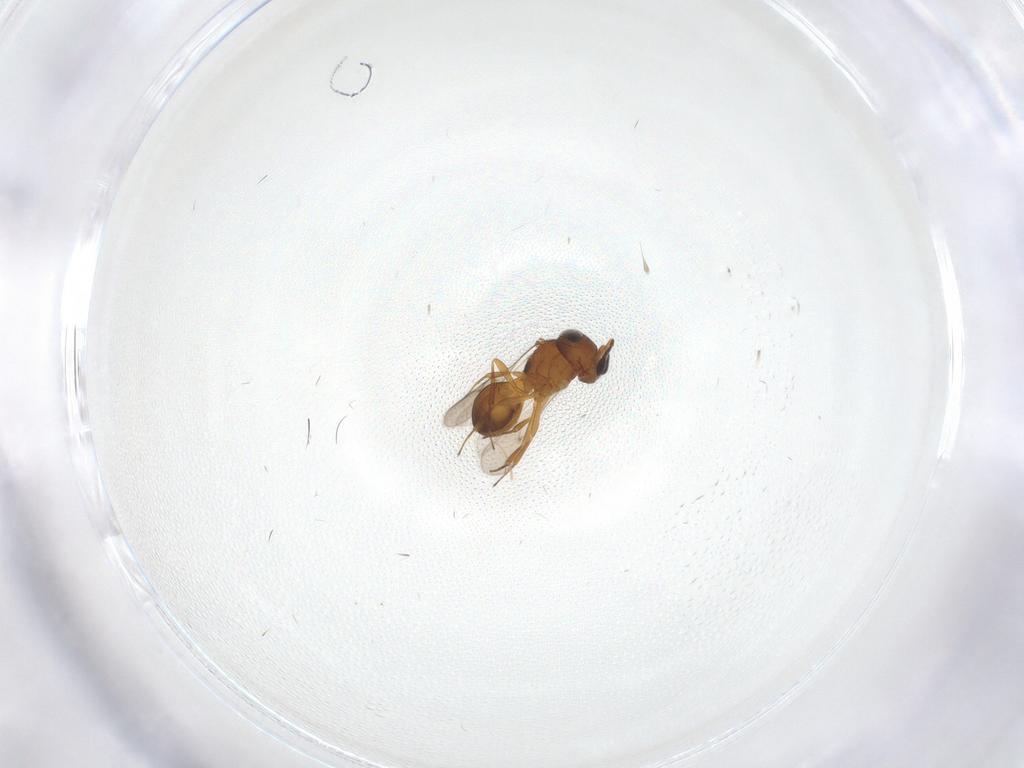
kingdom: Animalia
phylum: Arthropoda
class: Insecta
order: Hymenoptera
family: Scelionidae
